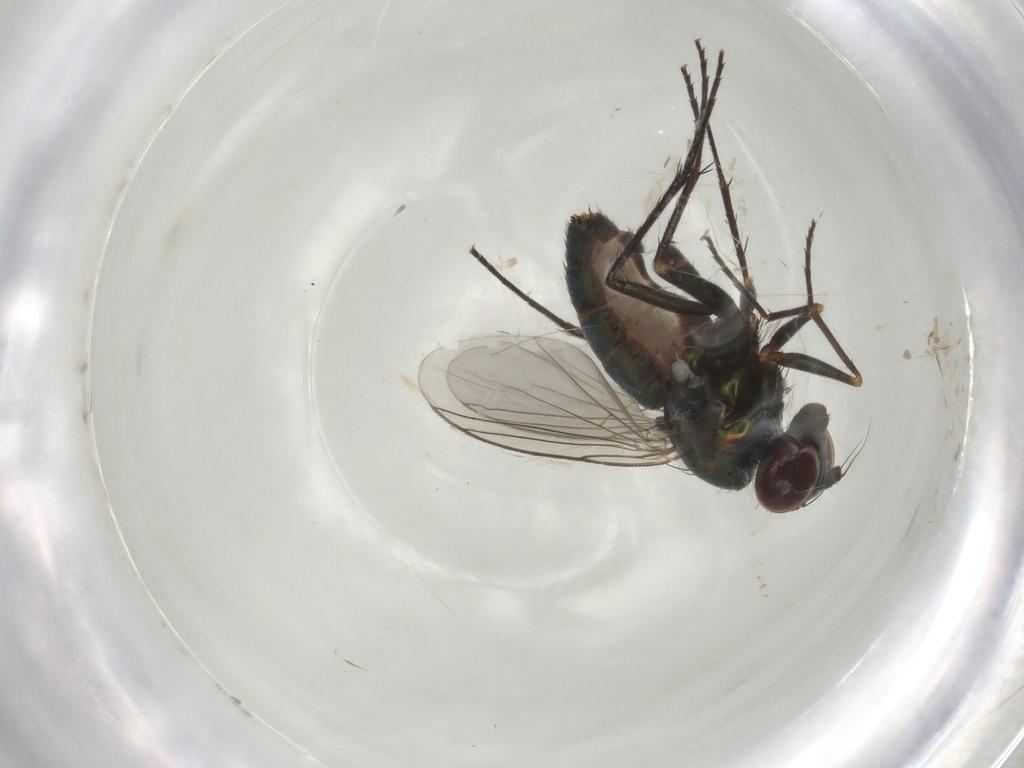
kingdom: Animalia
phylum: Arthropoda
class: Insecta
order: Diptera
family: Dolichopodidae
